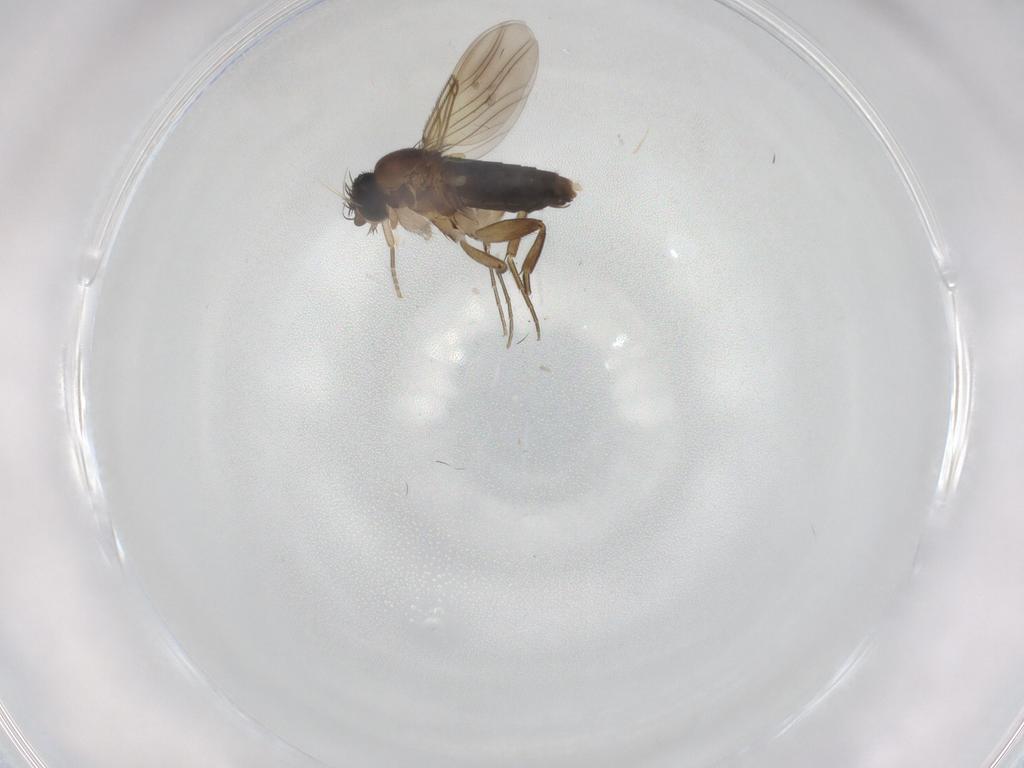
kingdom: Animalia
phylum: Arthropoda
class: Insecta
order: Diptera
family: Phoridae
